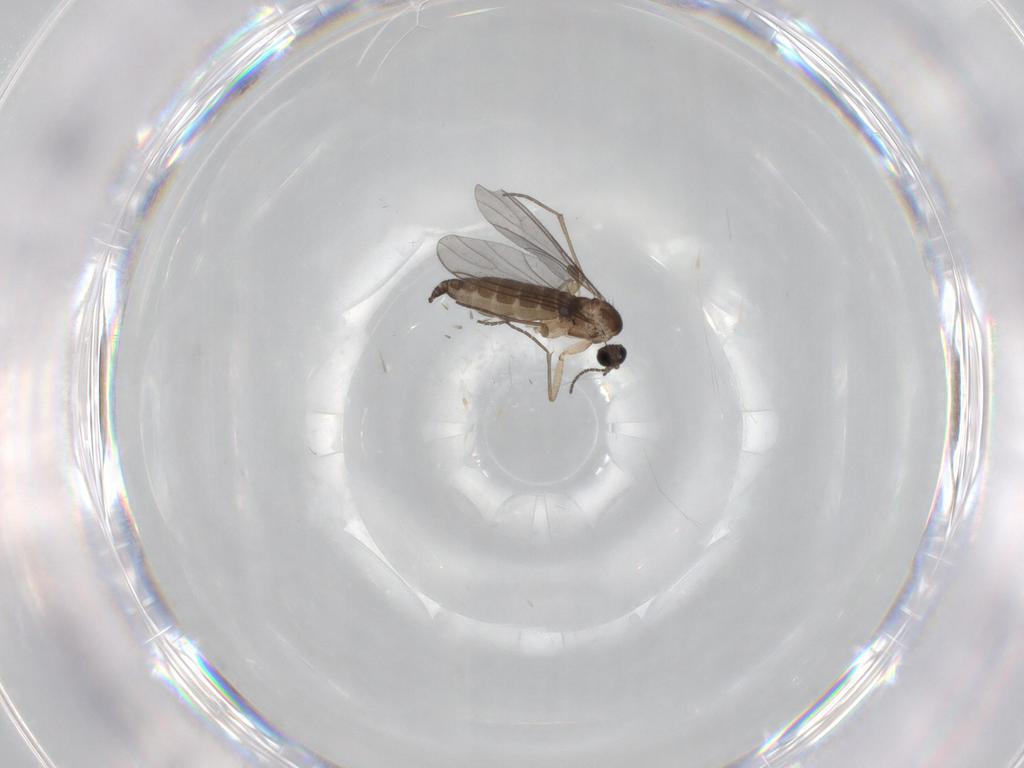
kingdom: Animalia
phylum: Arthropoda
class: Insecta
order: Diptera
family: Sciaridae
